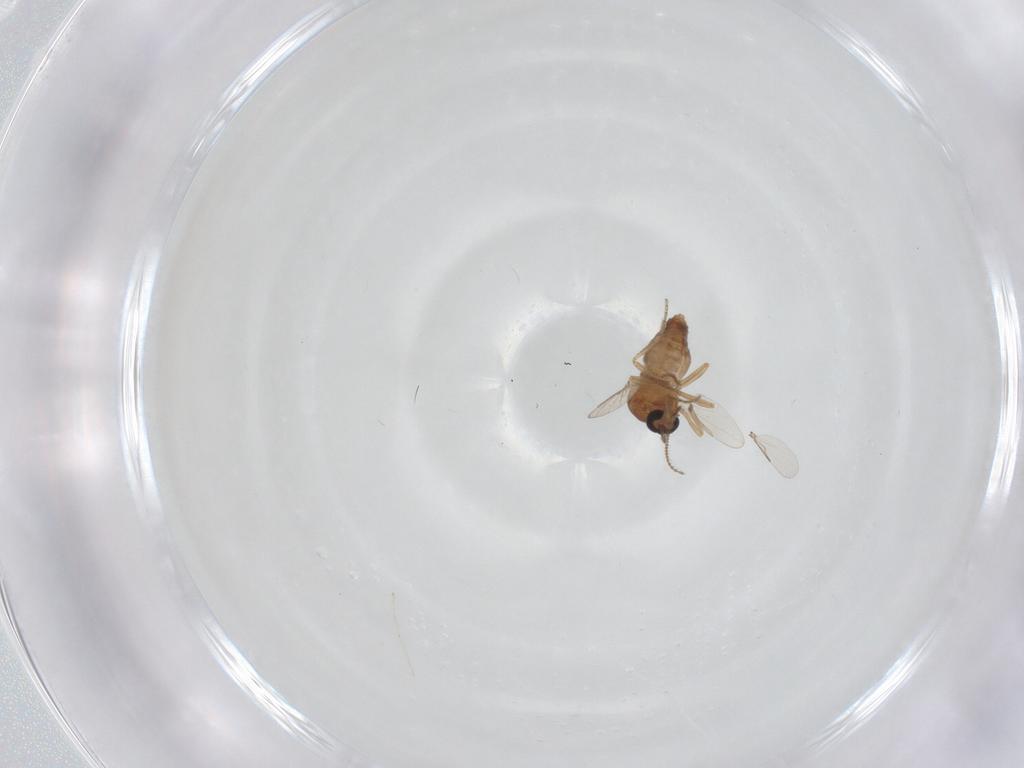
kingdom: Animalia
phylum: Arthropoda
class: Insecta
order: Diptera
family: Ceratopogonidae
